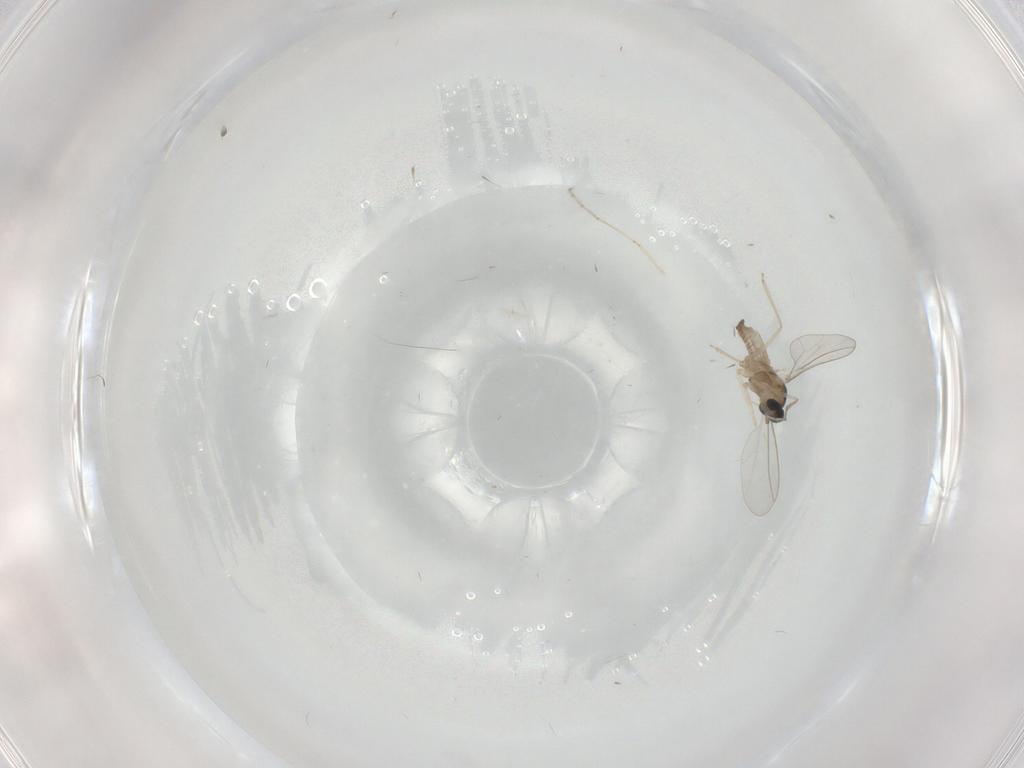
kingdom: Animalia
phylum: Arthropoda
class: Insecta
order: Diptera
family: Cecidomyiidae
